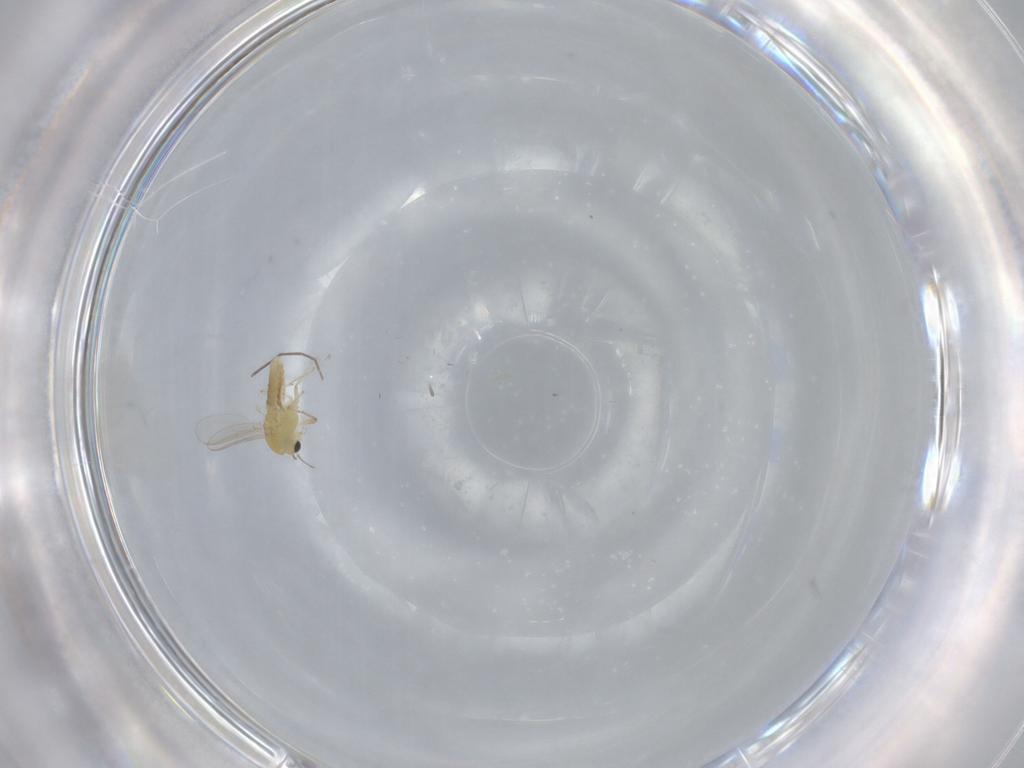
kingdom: Animalia
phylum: Arthropoda
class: Insecta
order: Diptera
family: Chironomidae
